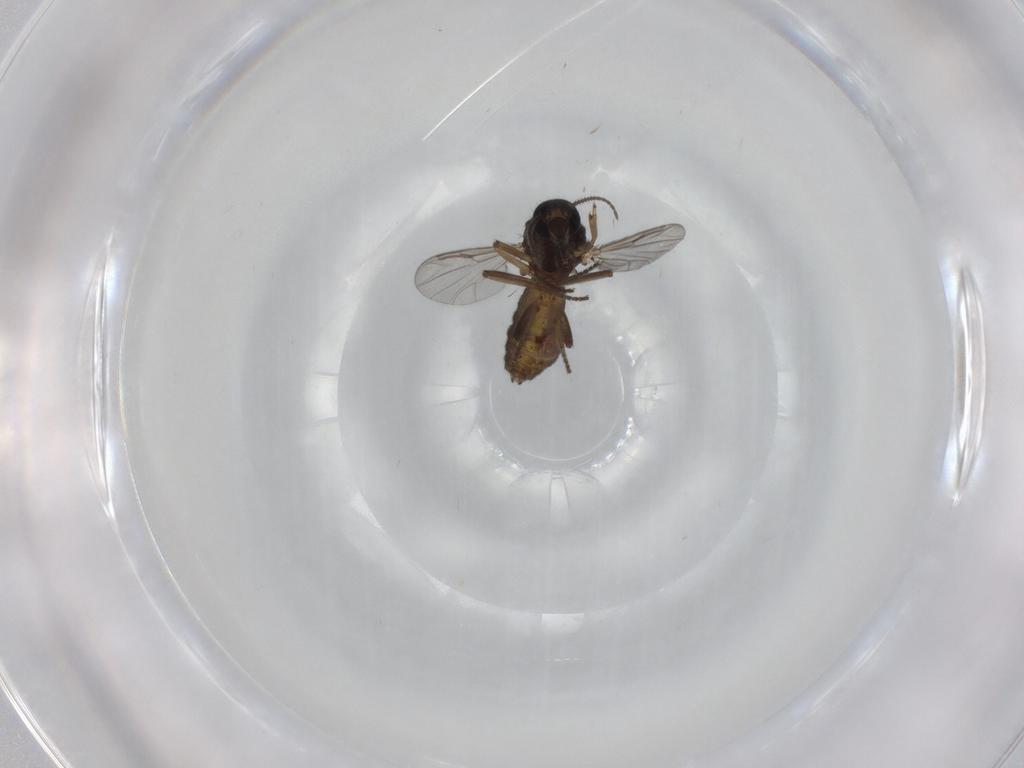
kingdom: Animalia
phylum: Arthropoda
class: Insecta
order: Diptera
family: Ceratopogonidae
